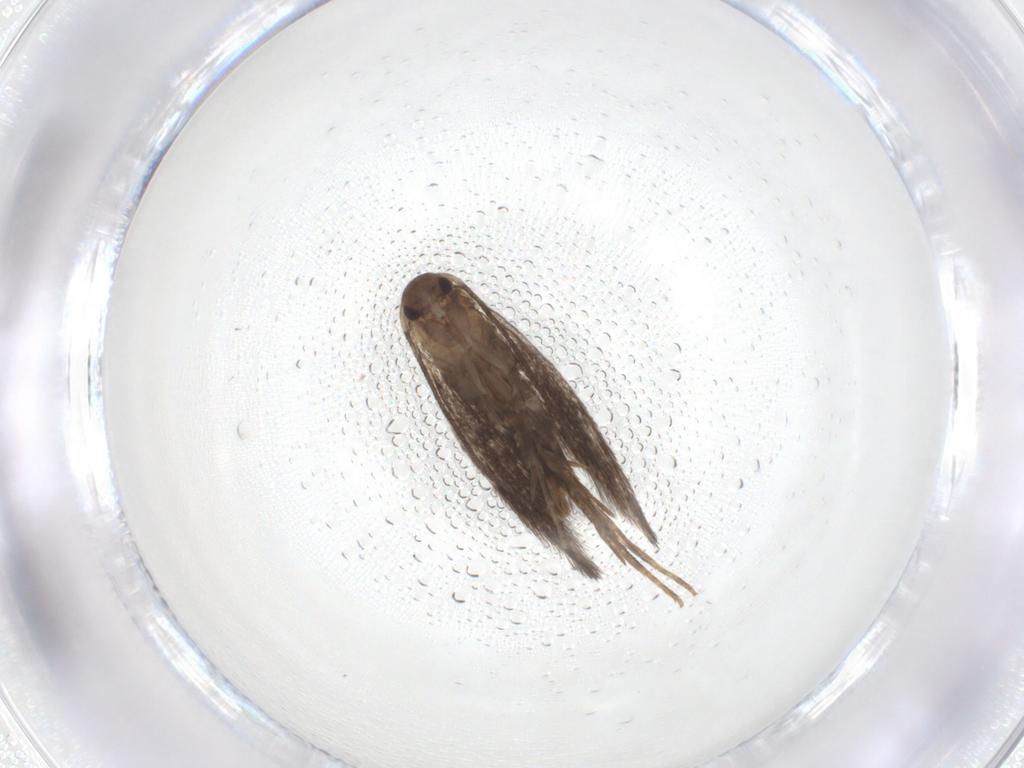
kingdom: Animalia
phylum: Arthropoda
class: Insecta
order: Lepidoptera
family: Elachistidae
